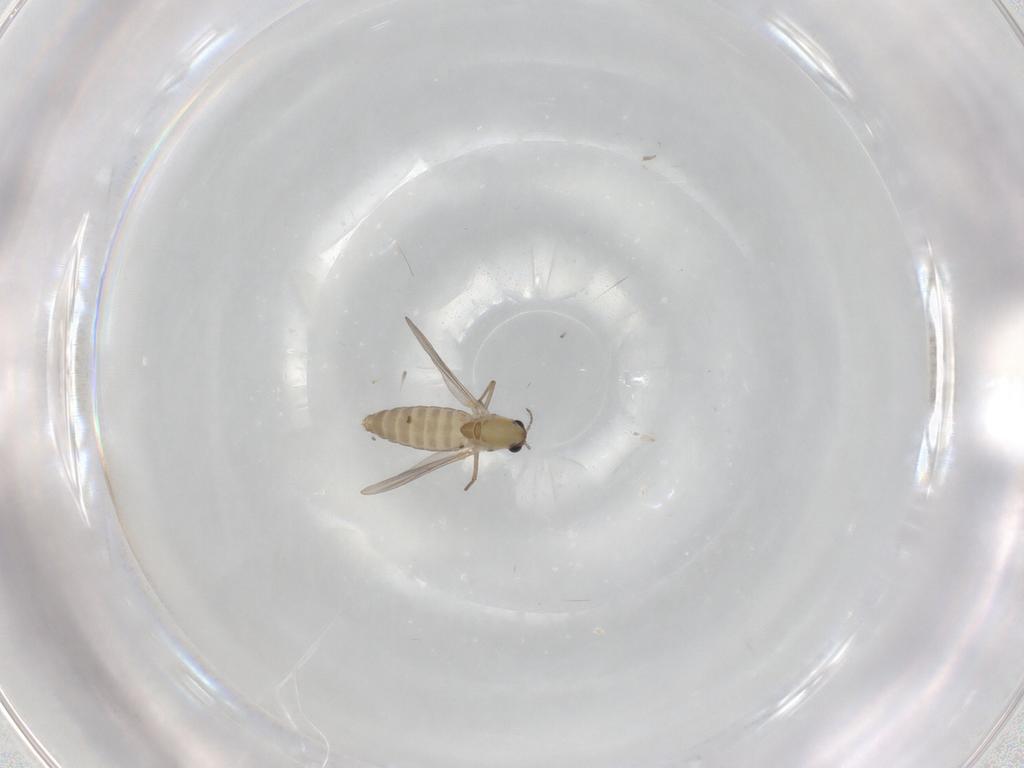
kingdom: Animalia
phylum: Arthropoda
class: Insecta
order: Diptera
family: Chironomidae
